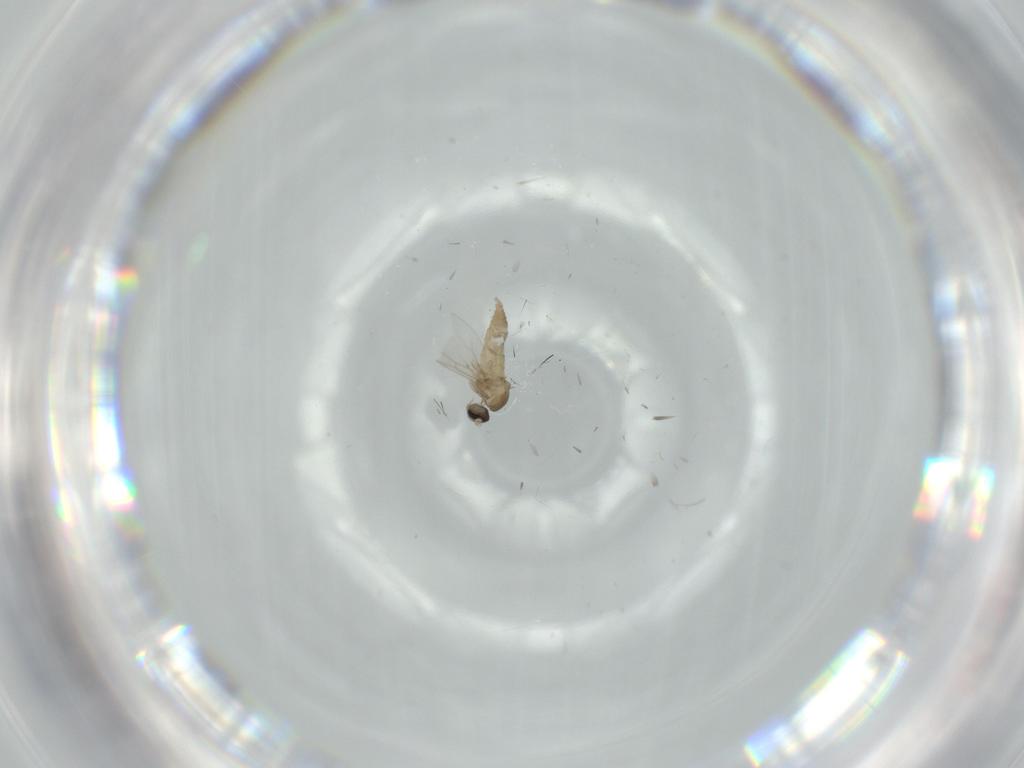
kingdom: Animalia
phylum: Arthropoda
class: Insecta
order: Diptera
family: Cecidomyiidae
